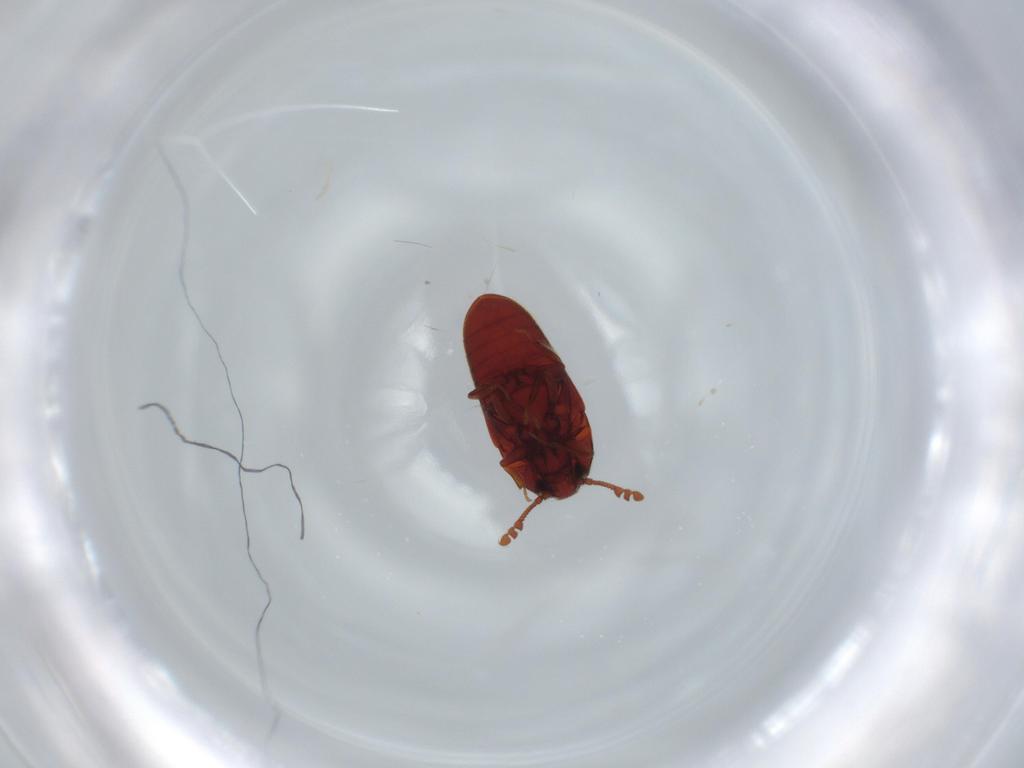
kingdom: Animalia
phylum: Arthropoda
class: Insecta
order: Coleoptera
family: Throscidae
